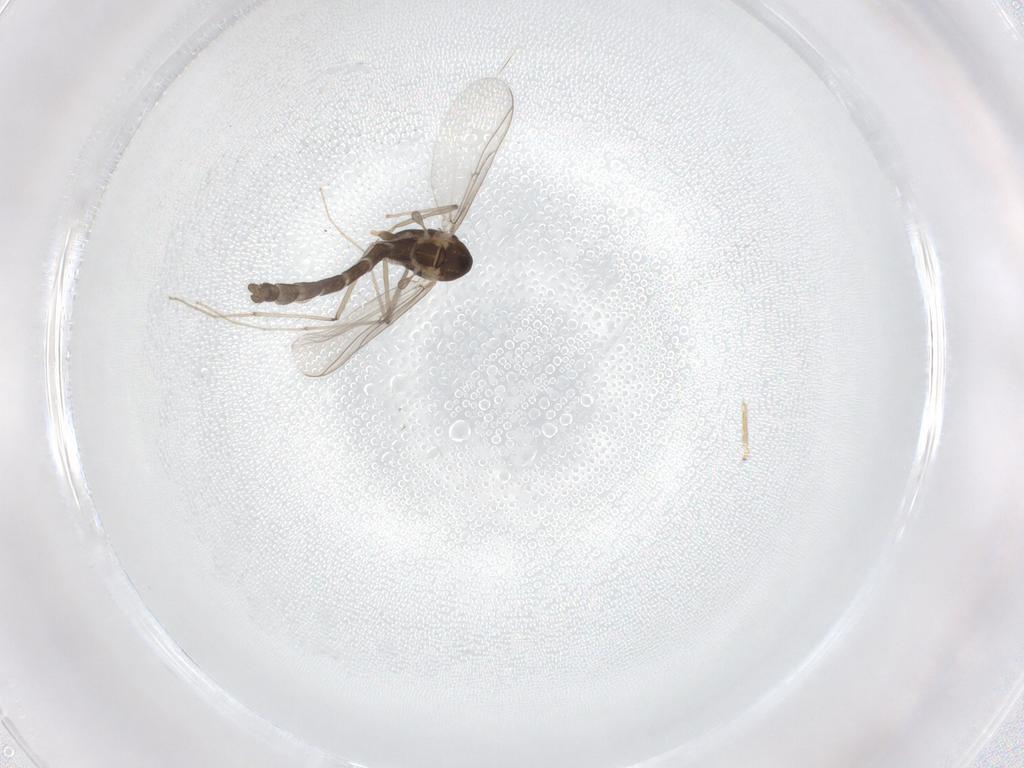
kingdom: Animalia
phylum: Arthropoda
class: Insecta
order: Diptera
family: Chironomidae
